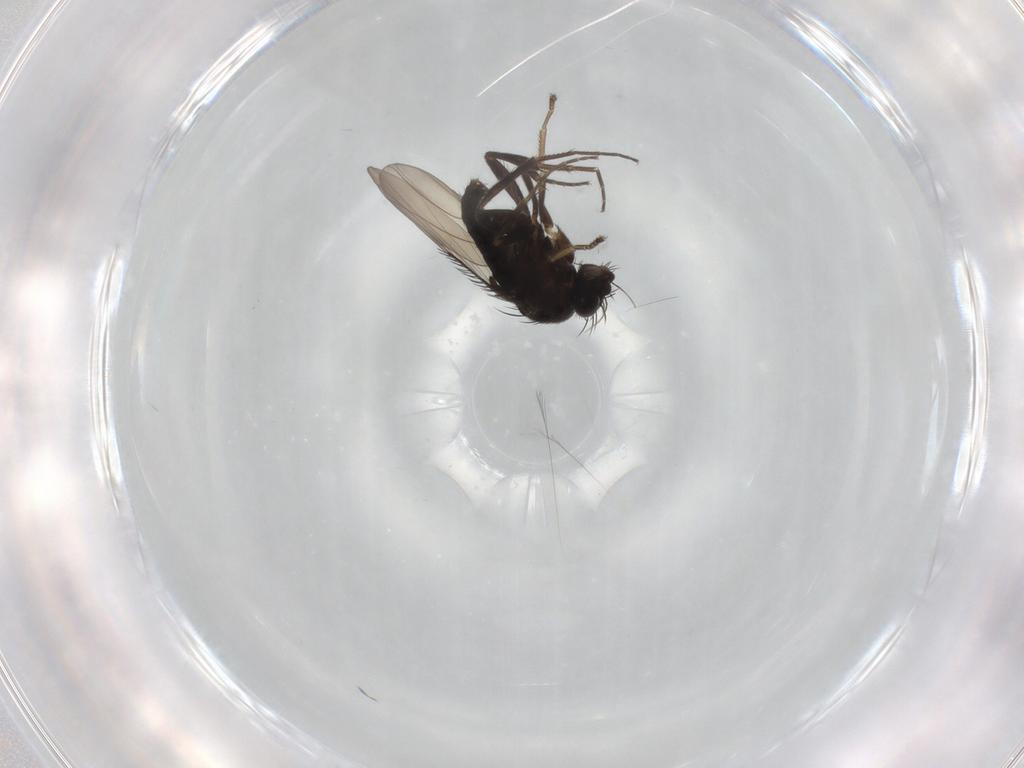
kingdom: Animalia
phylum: Arthropoda
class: Insecta
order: Diptera
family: Phoridae
